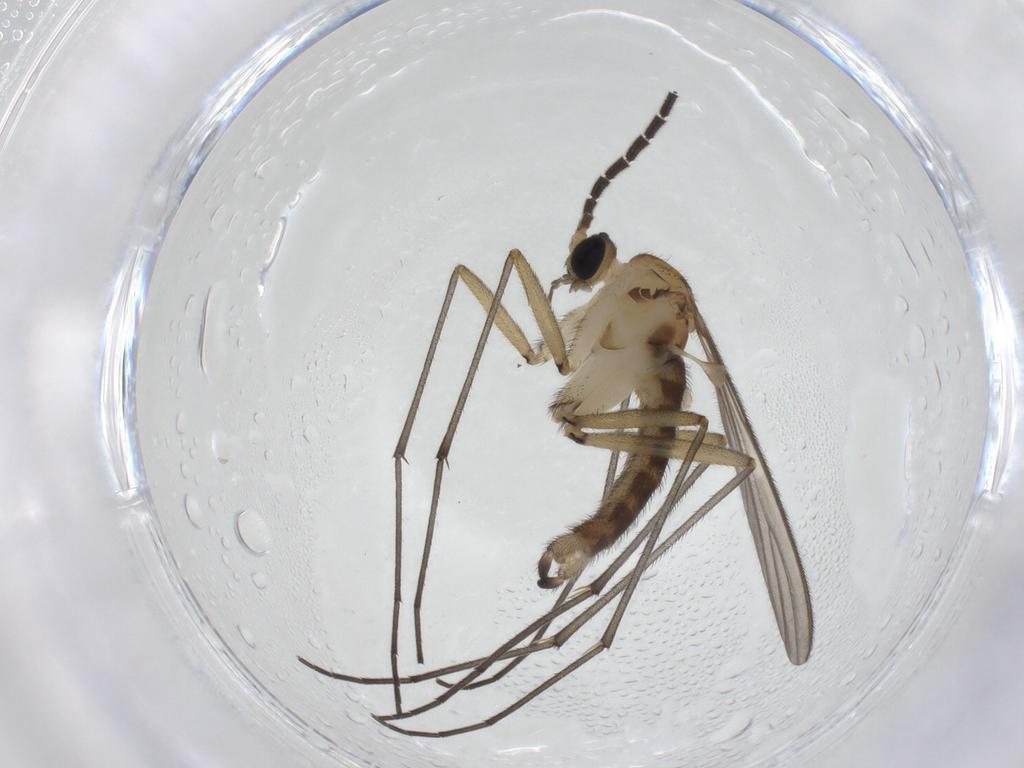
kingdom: Animalia
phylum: Arthropoda
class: Insecta
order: Diptera
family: Sciaridae
